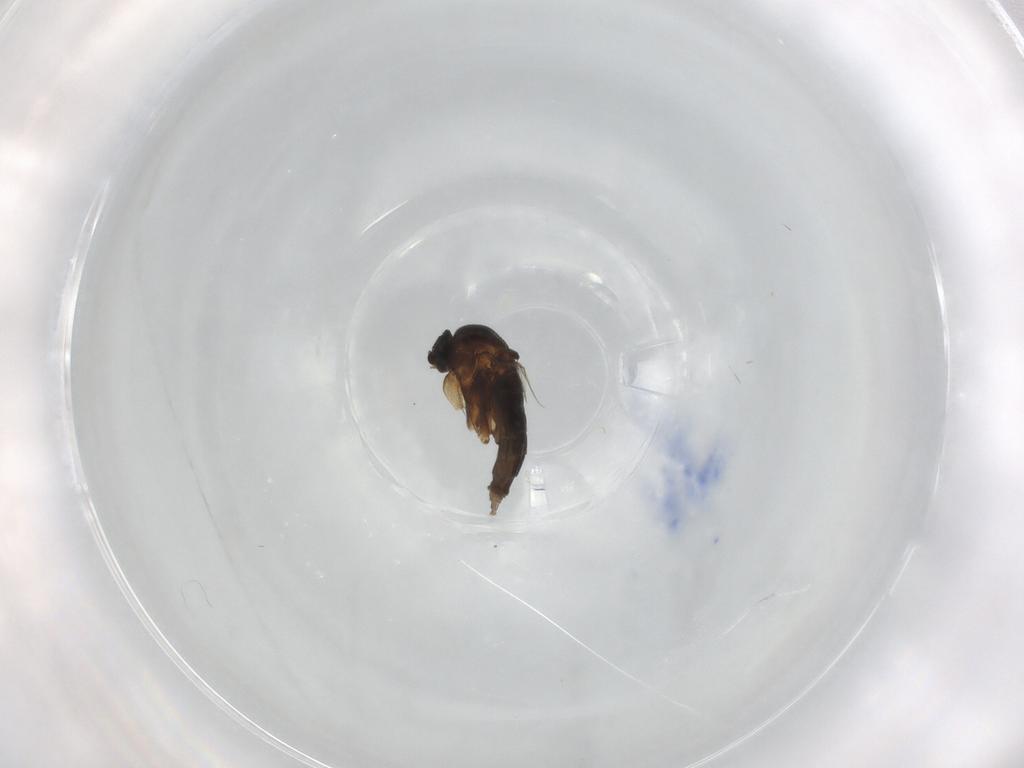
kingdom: Animalia
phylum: Arthropoda
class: Insecta
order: Diptera
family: Phoridae
